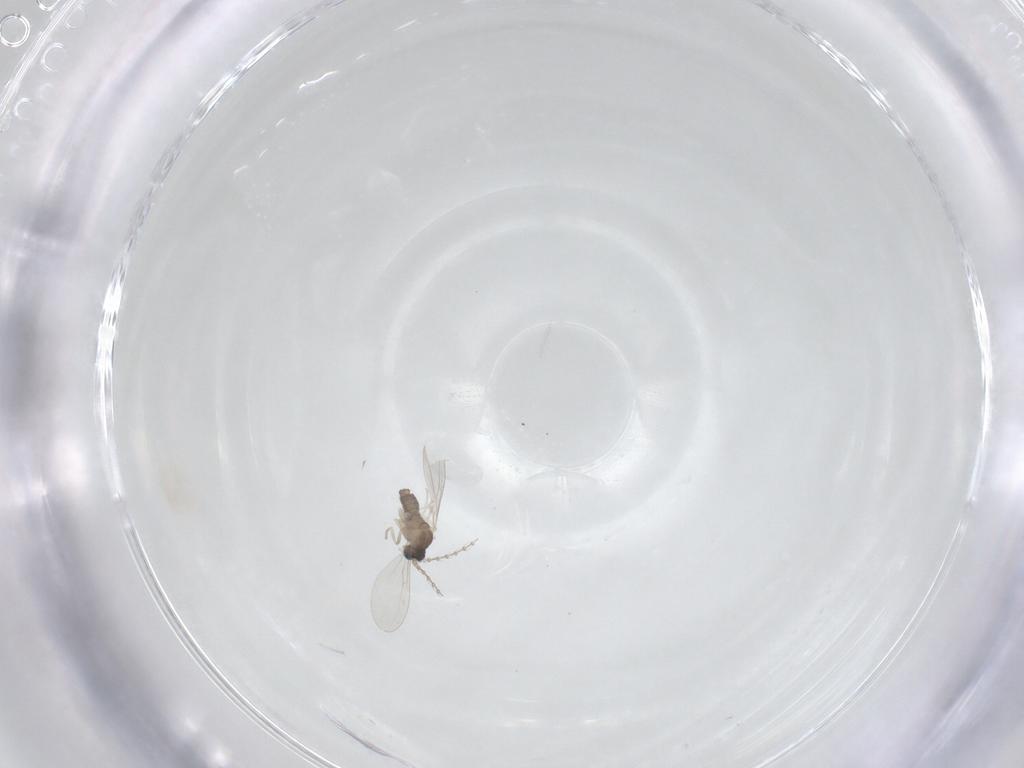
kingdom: Animalia
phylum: Arthropoda
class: Insecta
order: Diptera
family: Cecidomyiidae
